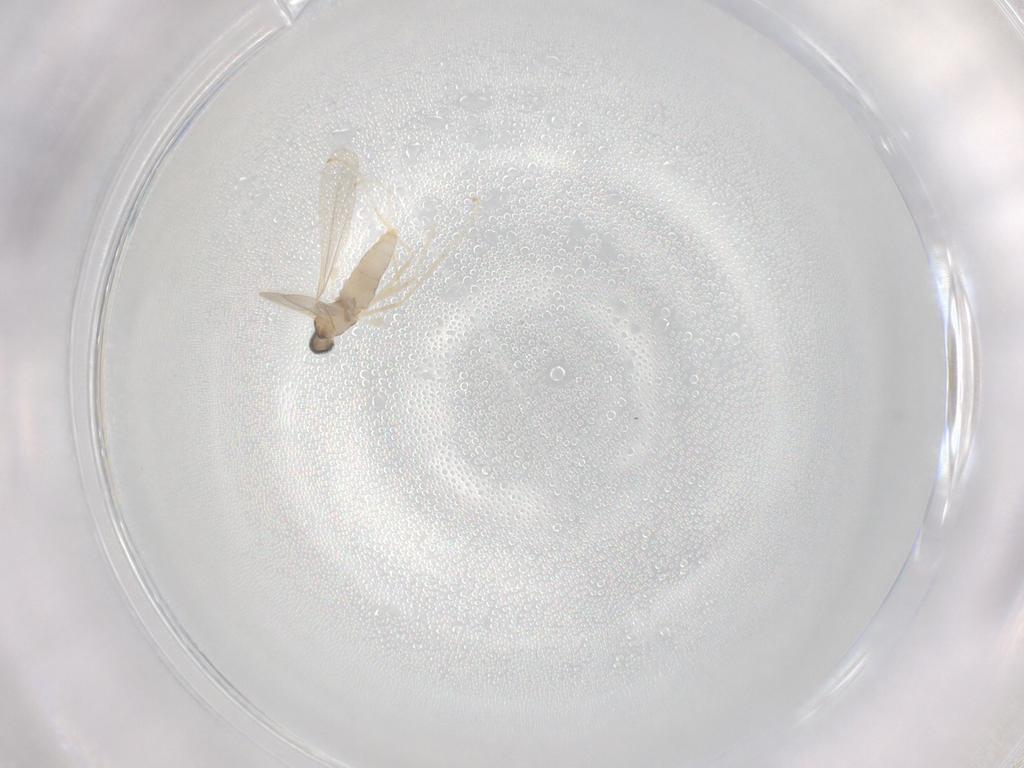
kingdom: Animalia
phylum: Arthropoda
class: Insecta
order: Diptera
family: Cecidomyiidae
